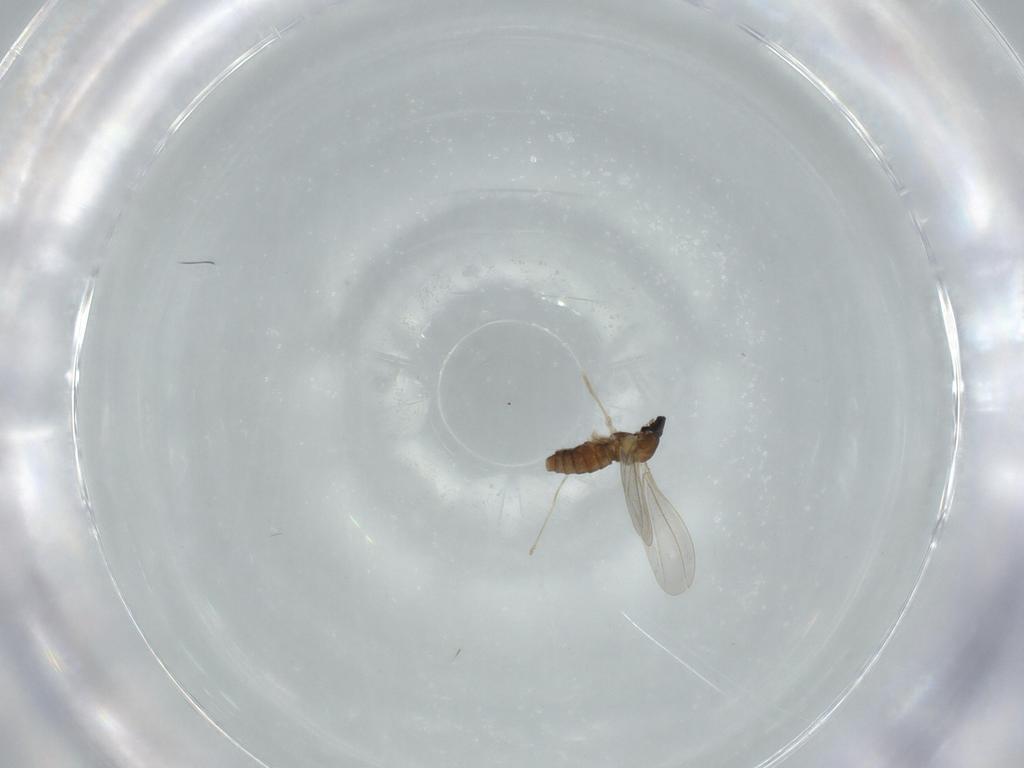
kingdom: Animalia
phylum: Arthropoda
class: Insecta
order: Diptera
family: Cecidomyiidae
